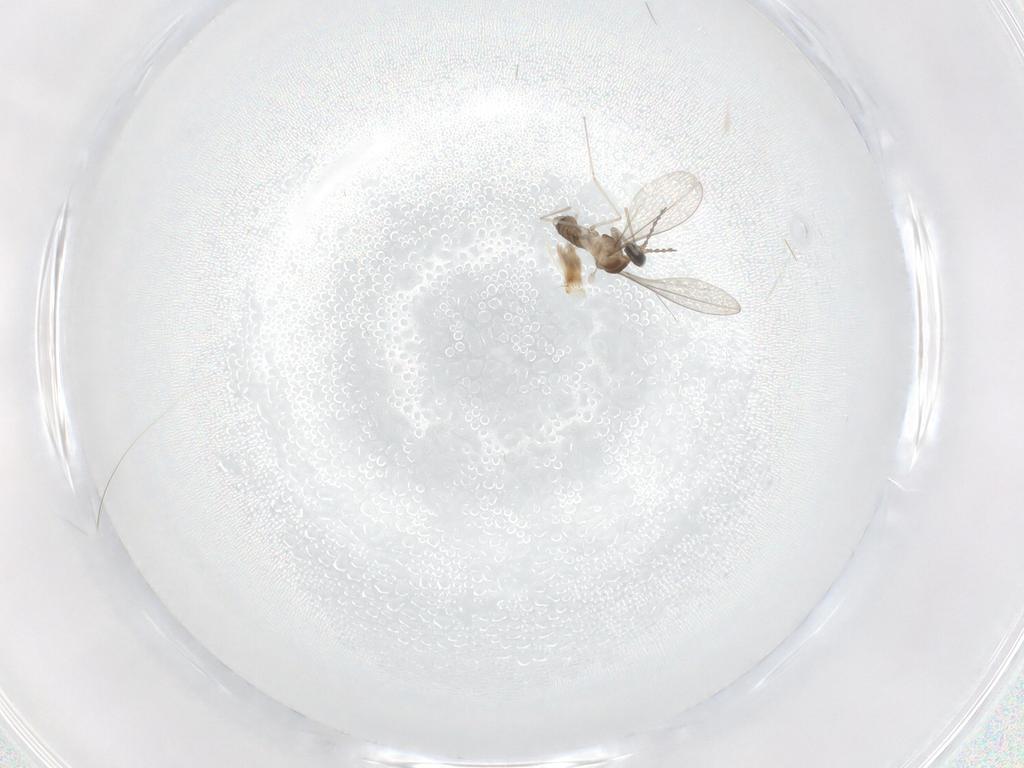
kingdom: Animalia
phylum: Arthropoda
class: Insecta
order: Diptera
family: Cecidomyiidae
